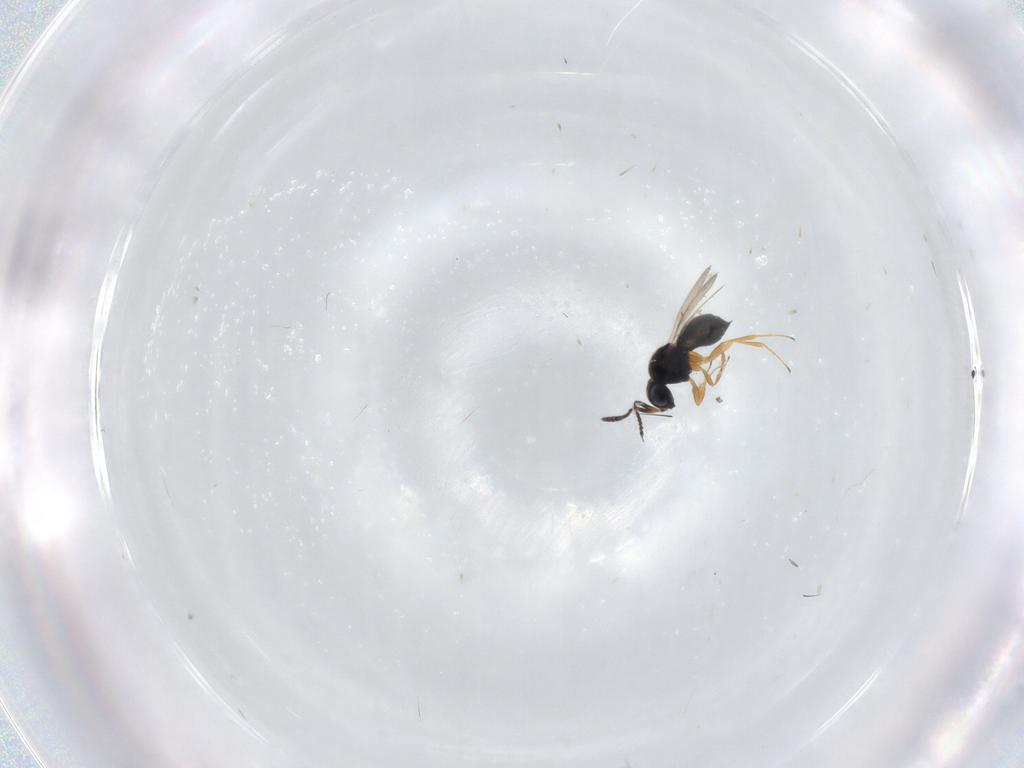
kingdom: Animalia
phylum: Arthropoda
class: Insecta
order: Hymenoptera
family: Scelionidae
